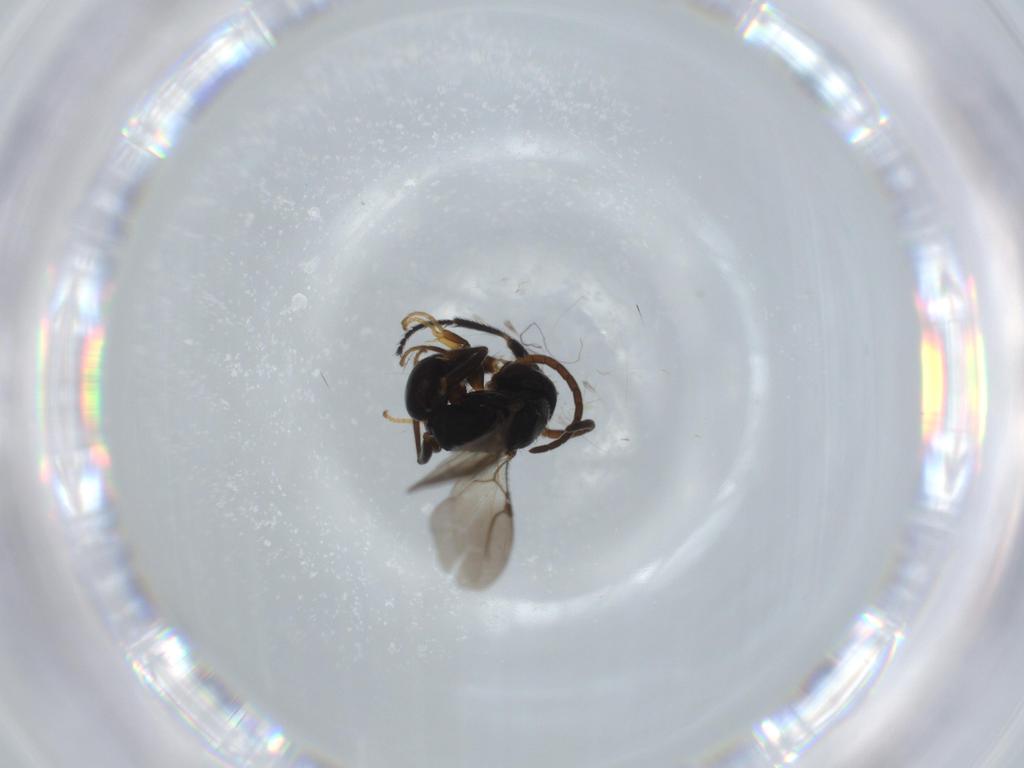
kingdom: Animalia
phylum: Arthropoda
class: Insecta
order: Hymenoptera
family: Bethylidae
